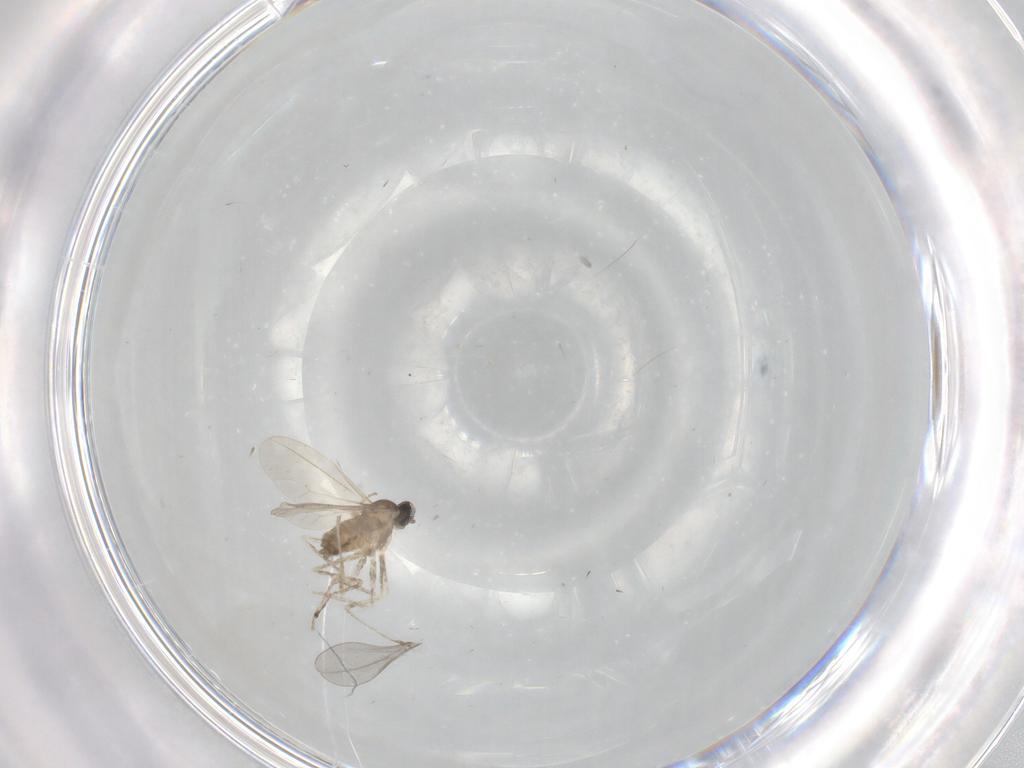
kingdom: Animalia
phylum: Arthropoda
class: Insecta
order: Diptera
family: Cecidomyiidae
